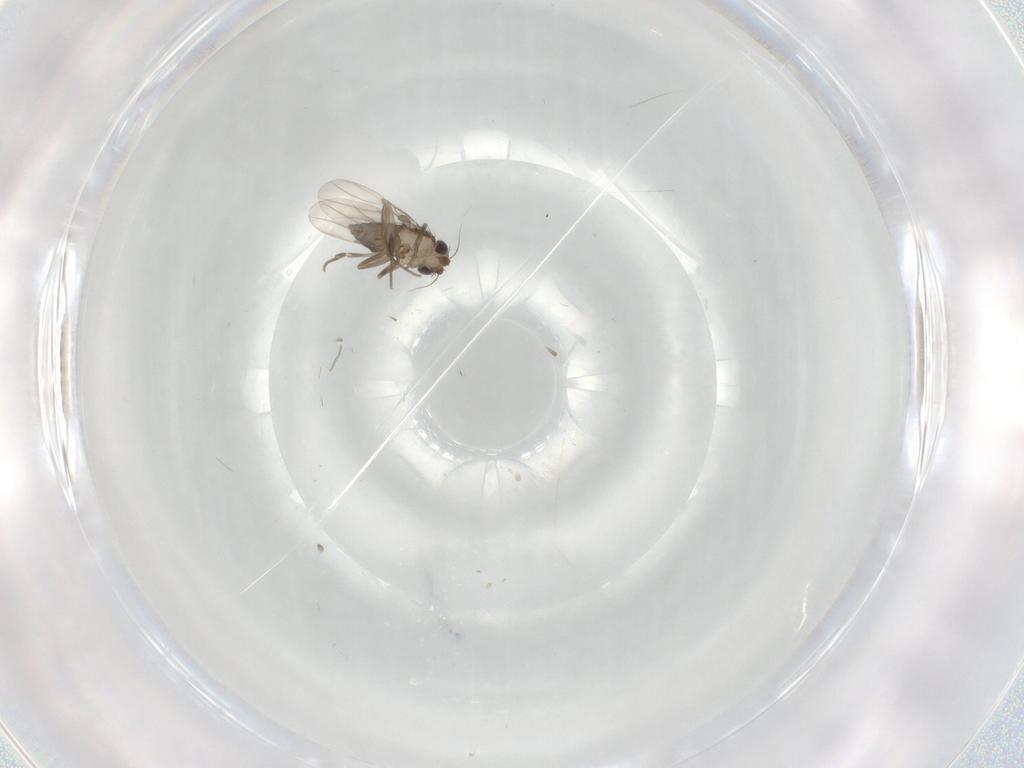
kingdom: Animalia
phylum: Arthropoda
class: Insecta
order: Diptera
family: Phoridae
